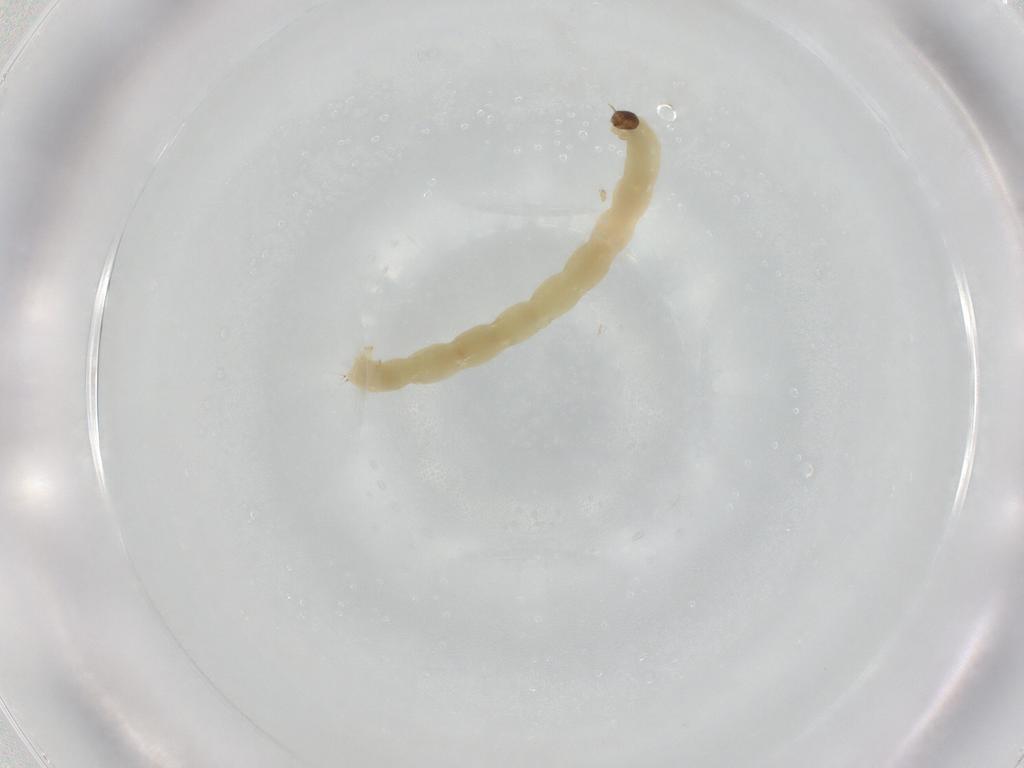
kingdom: Animalia
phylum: Arthropoda
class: Insecta
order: Diptera
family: Chironomidae
